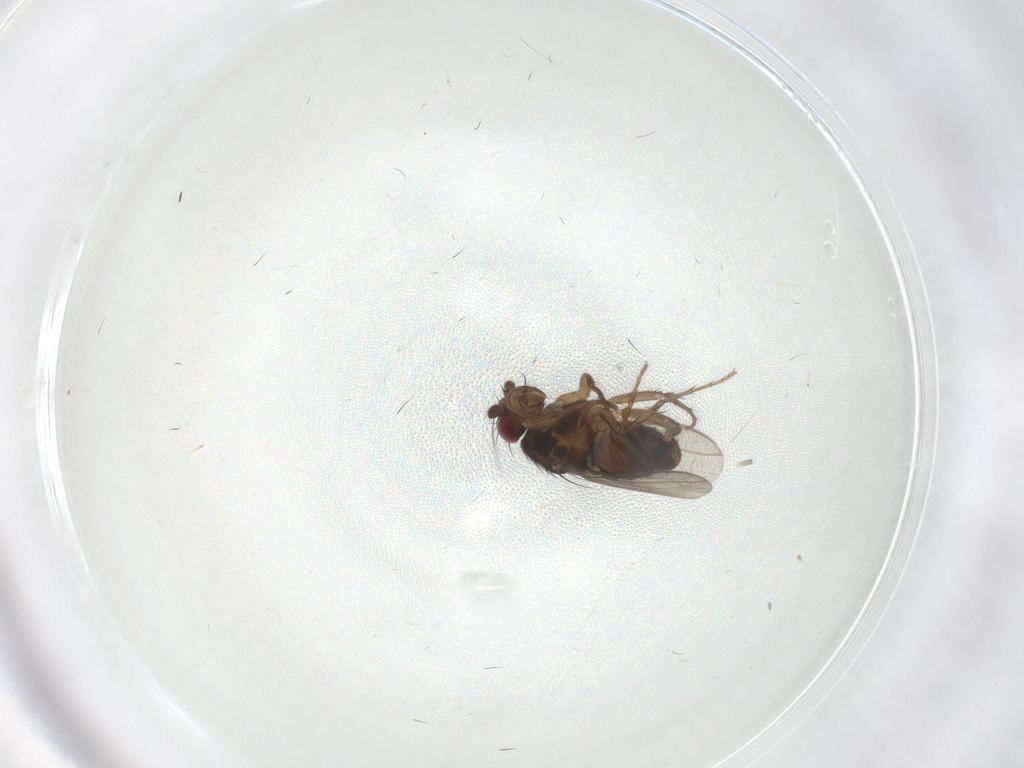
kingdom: Animalia
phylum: Arthropoda
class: Insecta
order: Diptera
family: Sphaeroceridae
